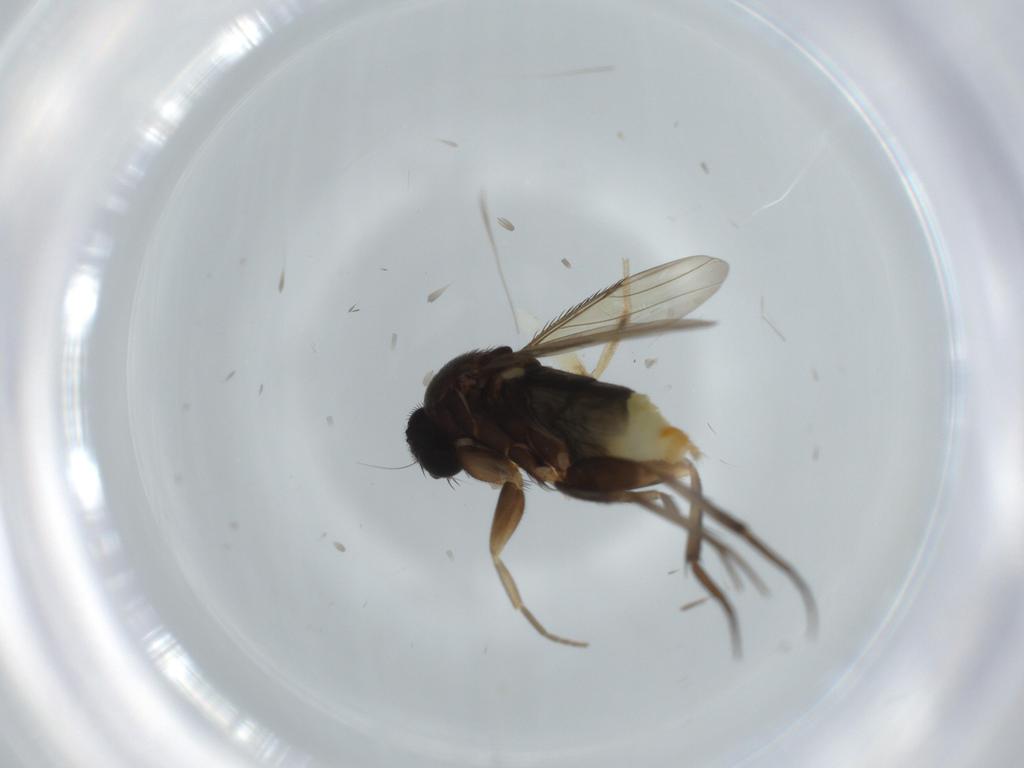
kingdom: Animalia
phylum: Arthropoda
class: Insecta
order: Diptera
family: Phoridae
